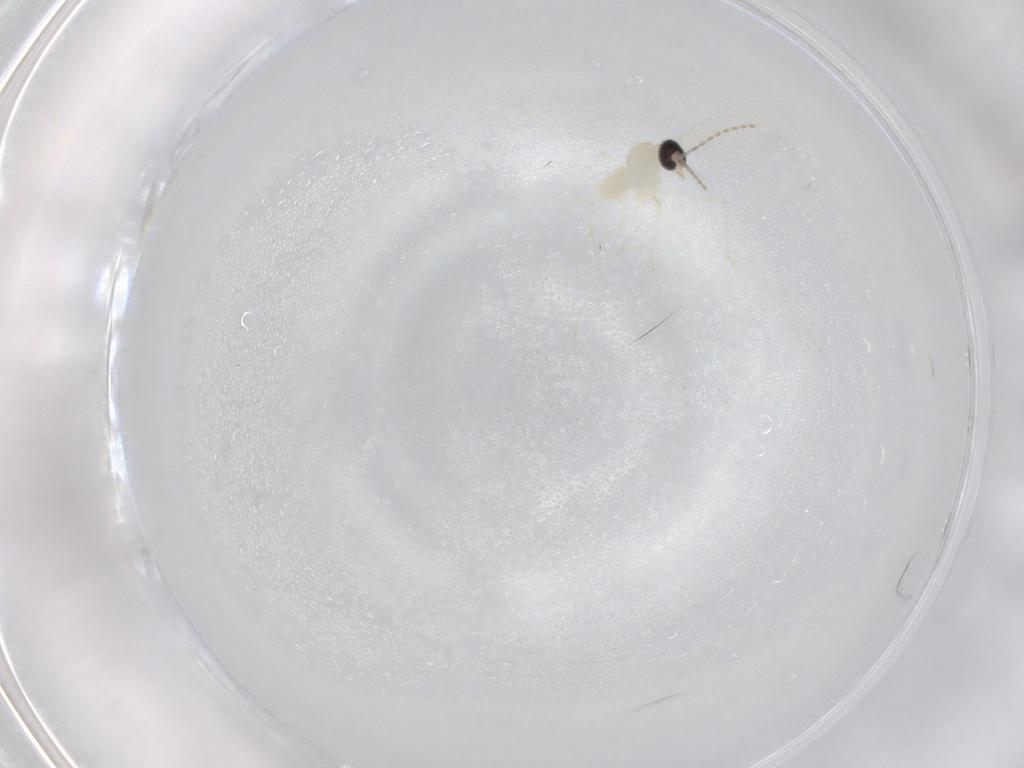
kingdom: Animalia
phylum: Arthropoda
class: Insecta
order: Diptera
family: Cecidomyiidae
